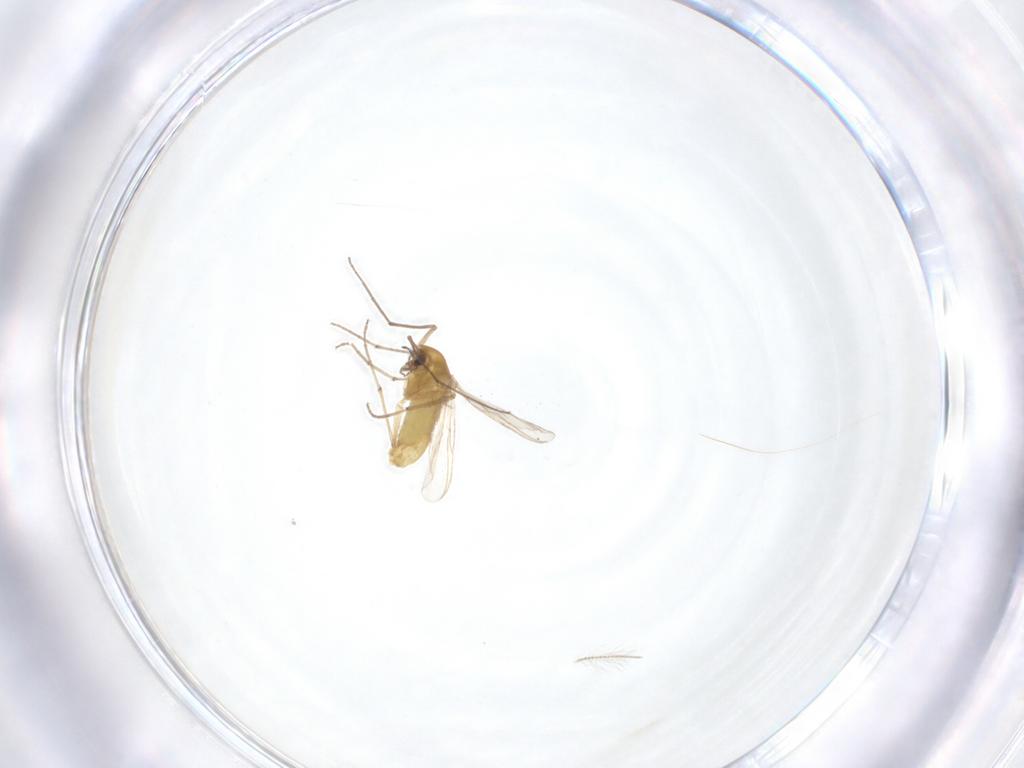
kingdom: Animalia
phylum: Arthropoda
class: Insecta
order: Diptera
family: Chironomidae
